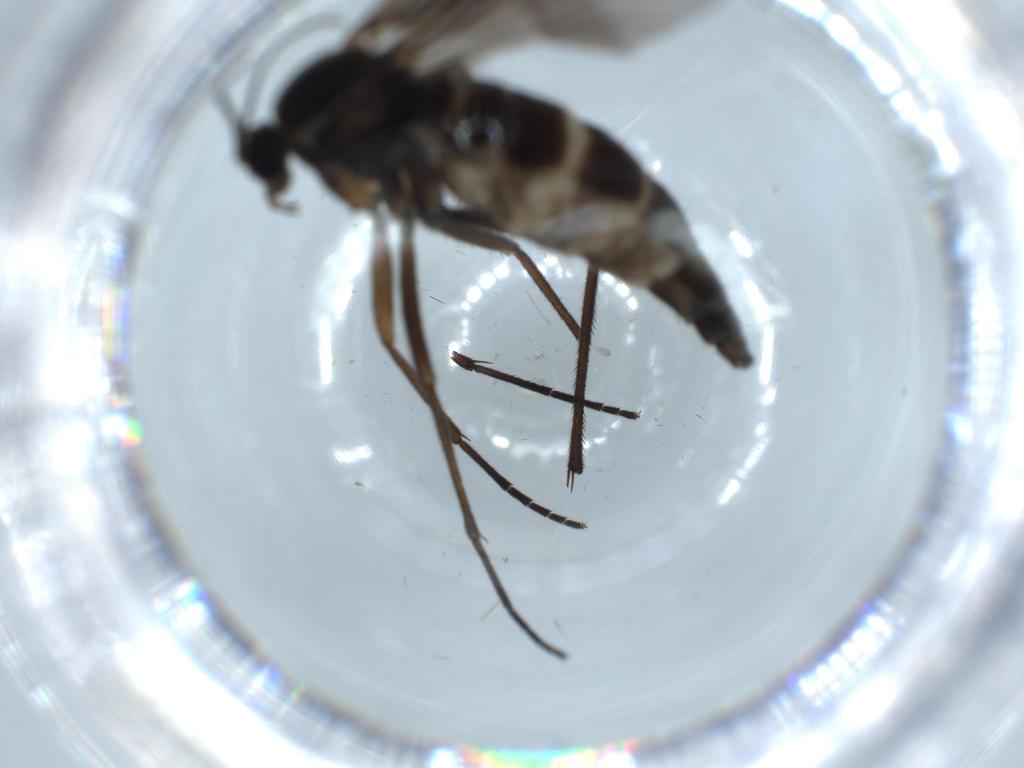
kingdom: Animalia
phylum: Arthropoda
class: Insecta
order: Diptera
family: Sciaridae
